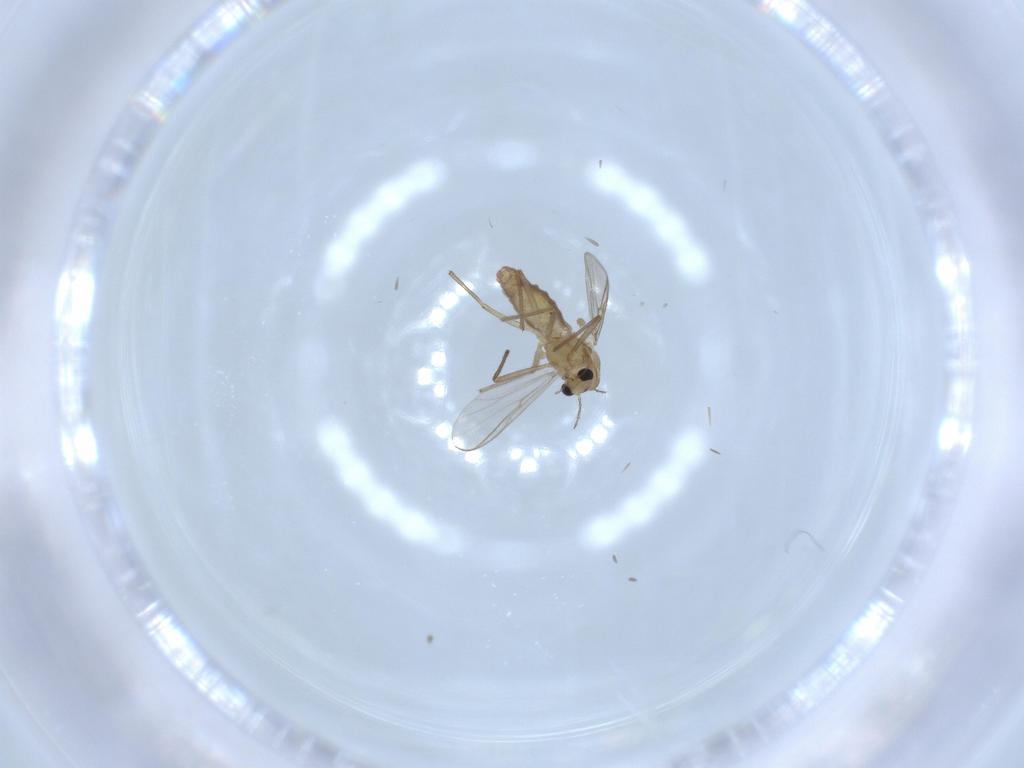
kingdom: Animalia
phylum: Arthropoda
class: Insecta
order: Diptera
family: Chironomidae
